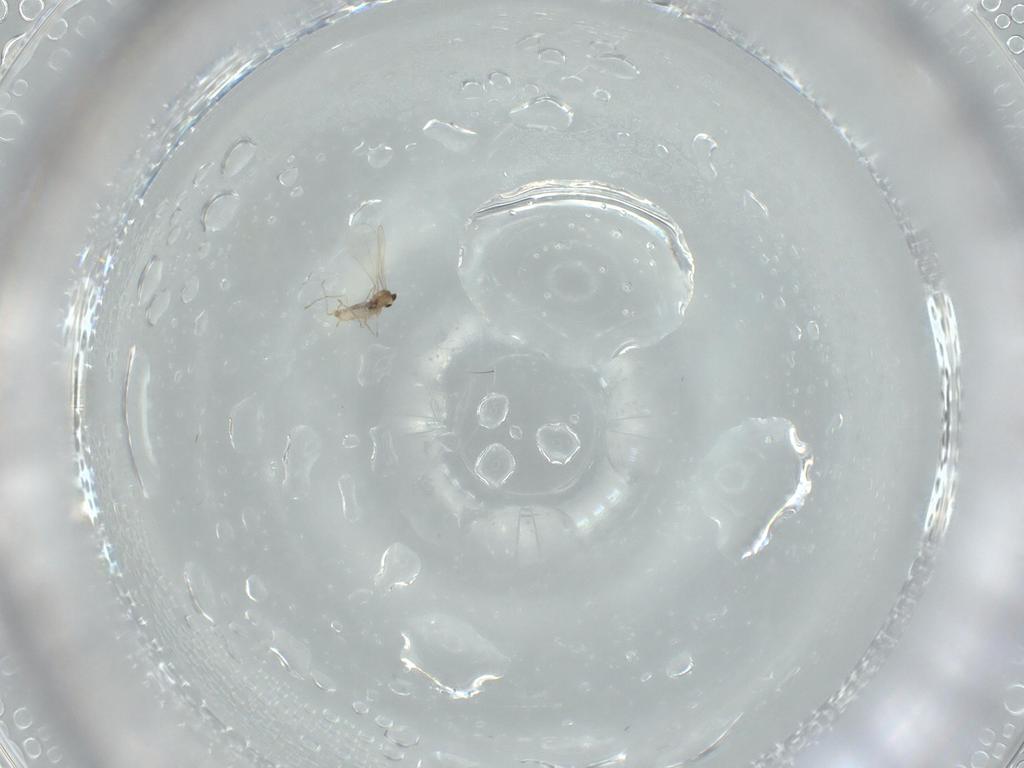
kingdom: Animalia
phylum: Arthropoda
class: Insecta
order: Diptera
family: Cecidomyiidae
